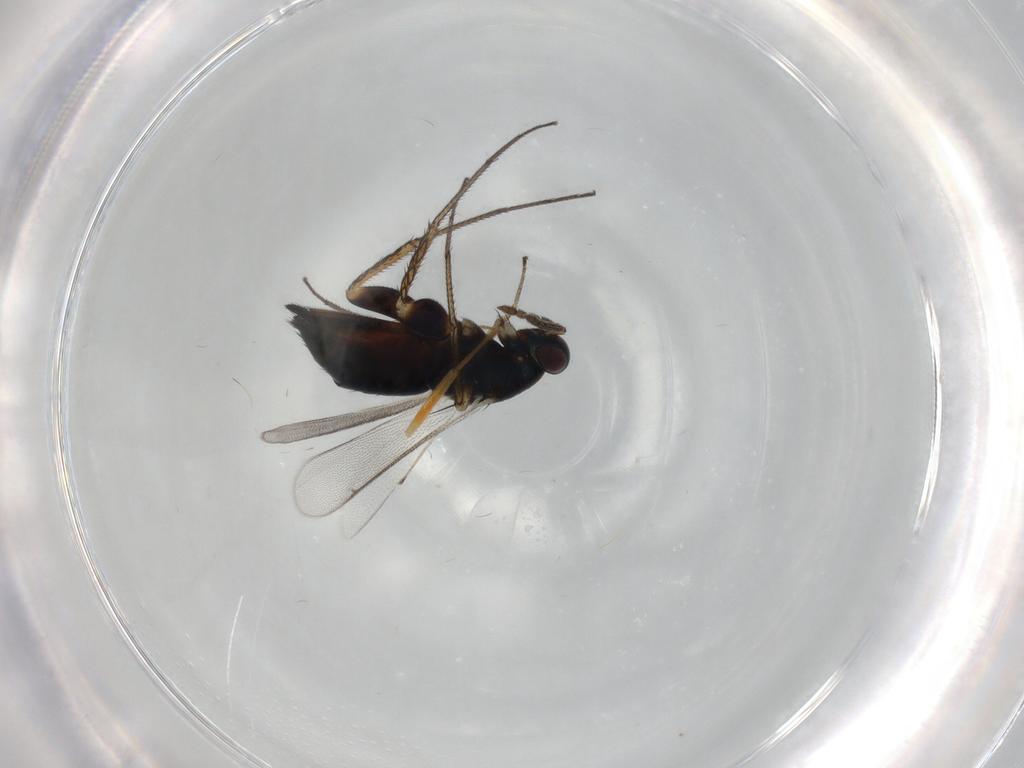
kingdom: Animalia
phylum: Arthropoda
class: Insecta
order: Hymenoptera
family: Eulophidae
